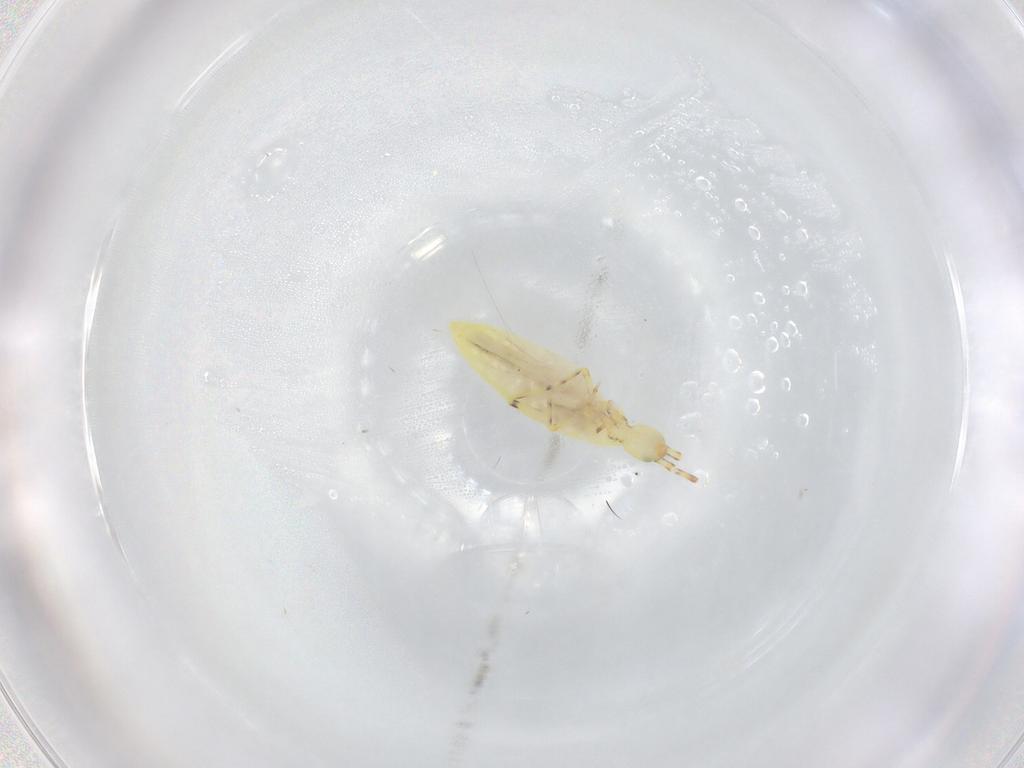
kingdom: Animalia
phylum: Arthropoda
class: Collembola
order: Entomobryomorpha
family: Entomobryidae
